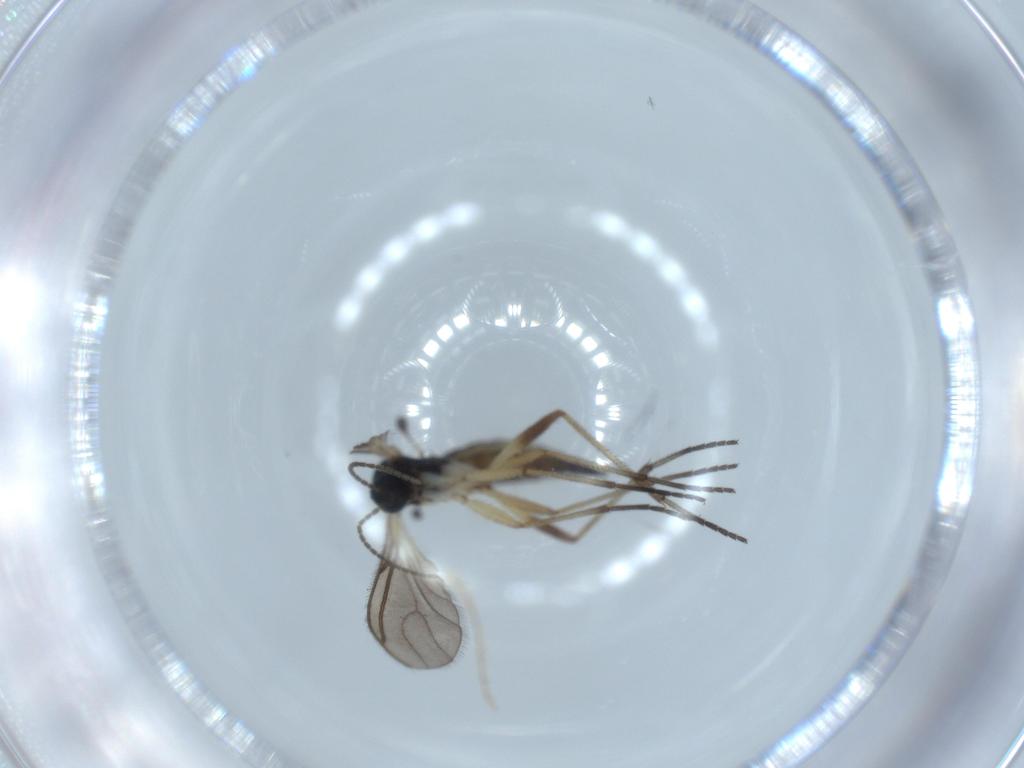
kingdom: Animalia
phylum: Arthropoda
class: Insecta
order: Diptera
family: Sciaridae
